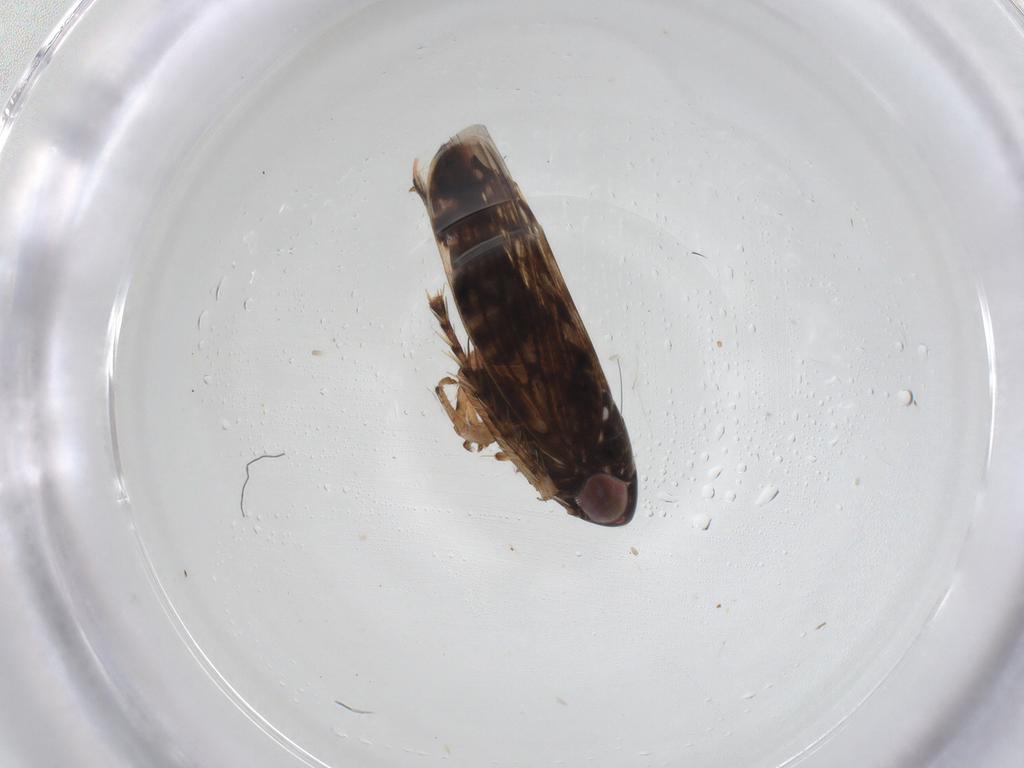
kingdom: Animalia
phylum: Arthropoda
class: Insecta
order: Hemiptera
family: Cicadellidae
